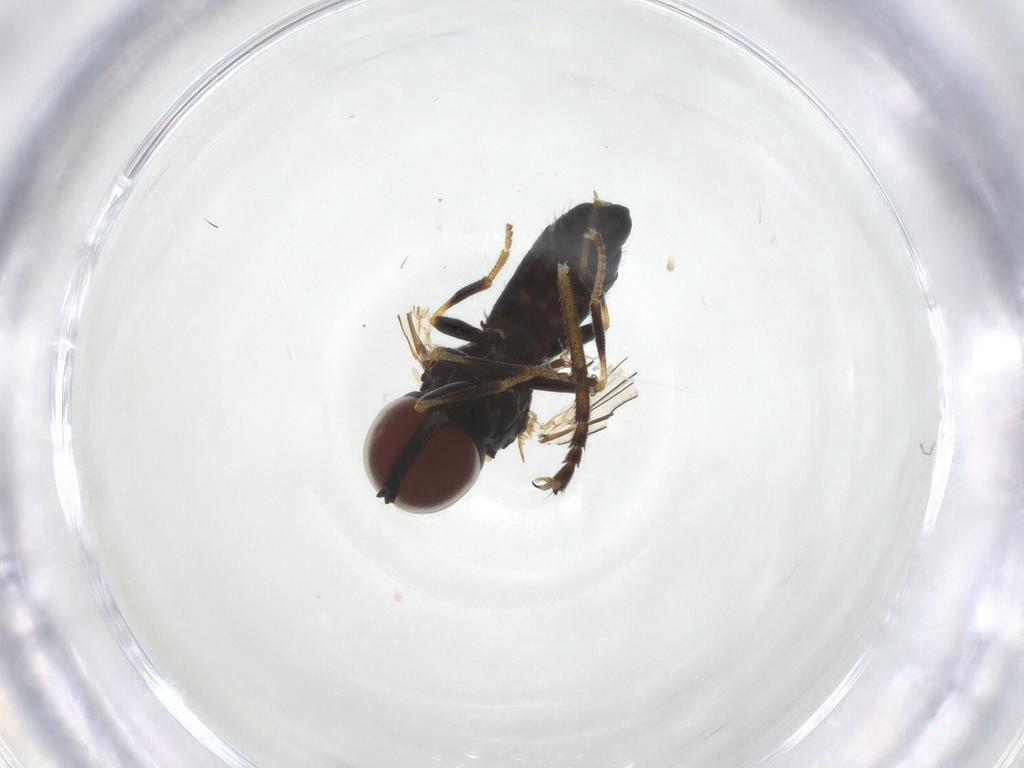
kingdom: Animalia
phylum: Arthropoda
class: Insecta
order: Diptera
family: Pipunculidae
